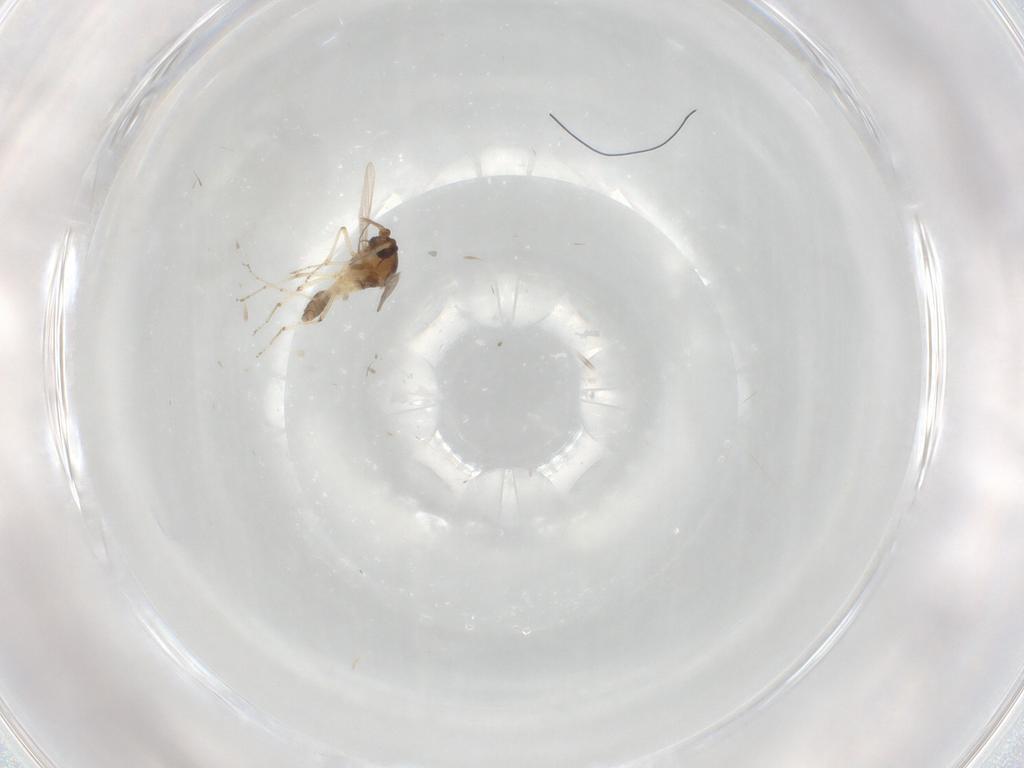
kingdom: Animalia
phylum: Arthropoda
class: Insecta
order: Diptera
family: Ceratopogonidae
